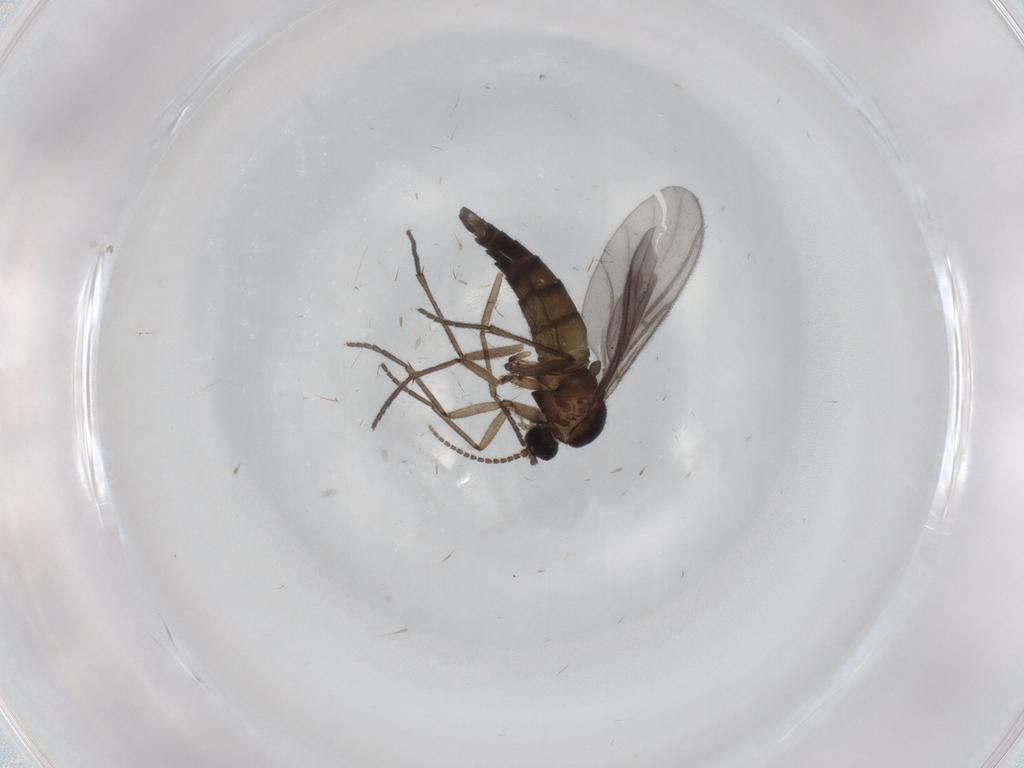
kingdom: Animalia
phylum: Arthropoda
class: Insecta
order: Diptera
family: Sciaridae
